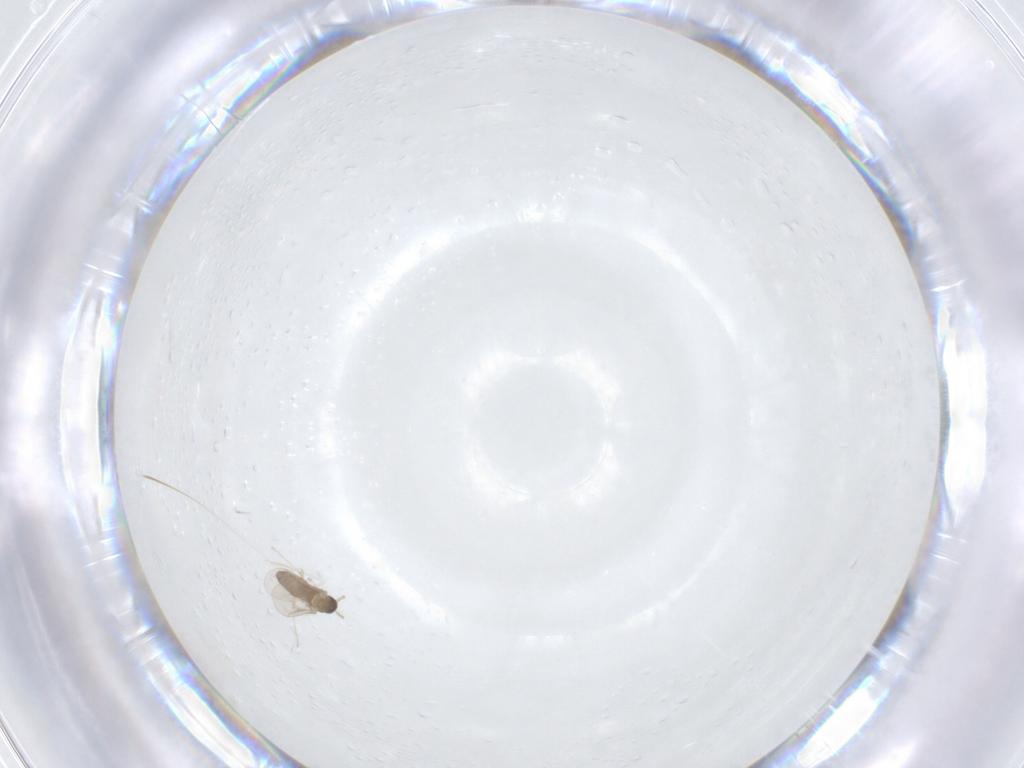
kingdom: Animalia
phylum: Arthropoda
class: Insecta
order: Diptera
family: Cecidomyiidae
